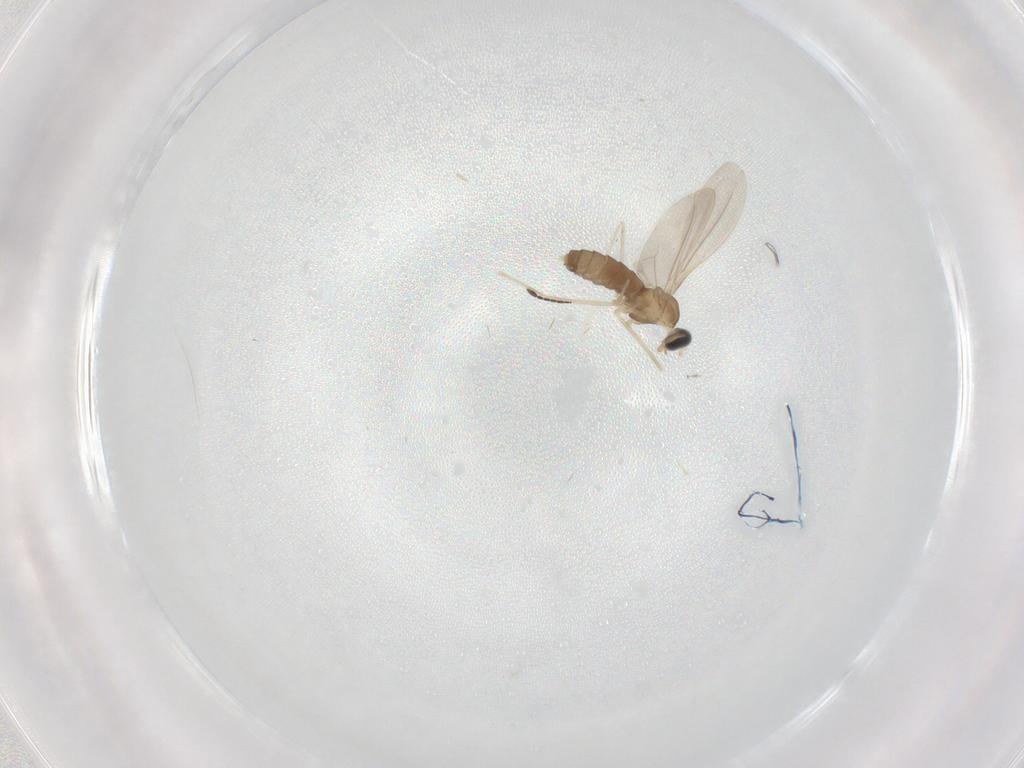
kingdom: Animalia
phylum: Arthropoda
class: Insecta
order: Diptera
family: Cecidomyiidae
